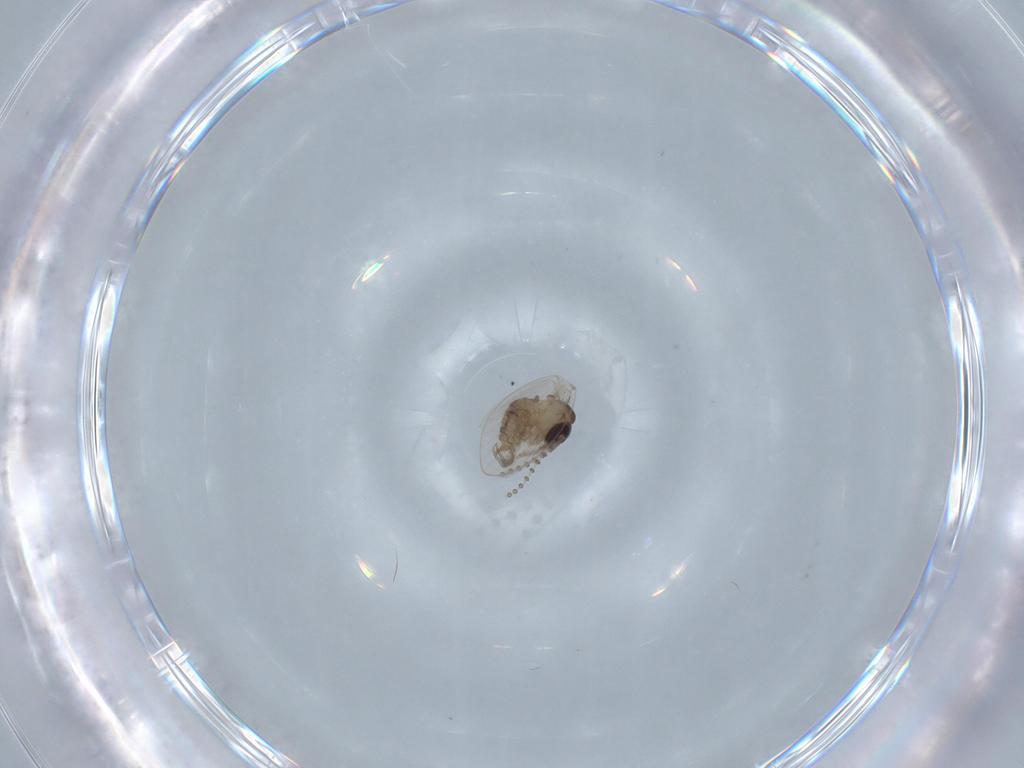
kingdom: Animalia
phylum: Arthropoda
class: Insecta
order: Diptera
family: Psychodidae
